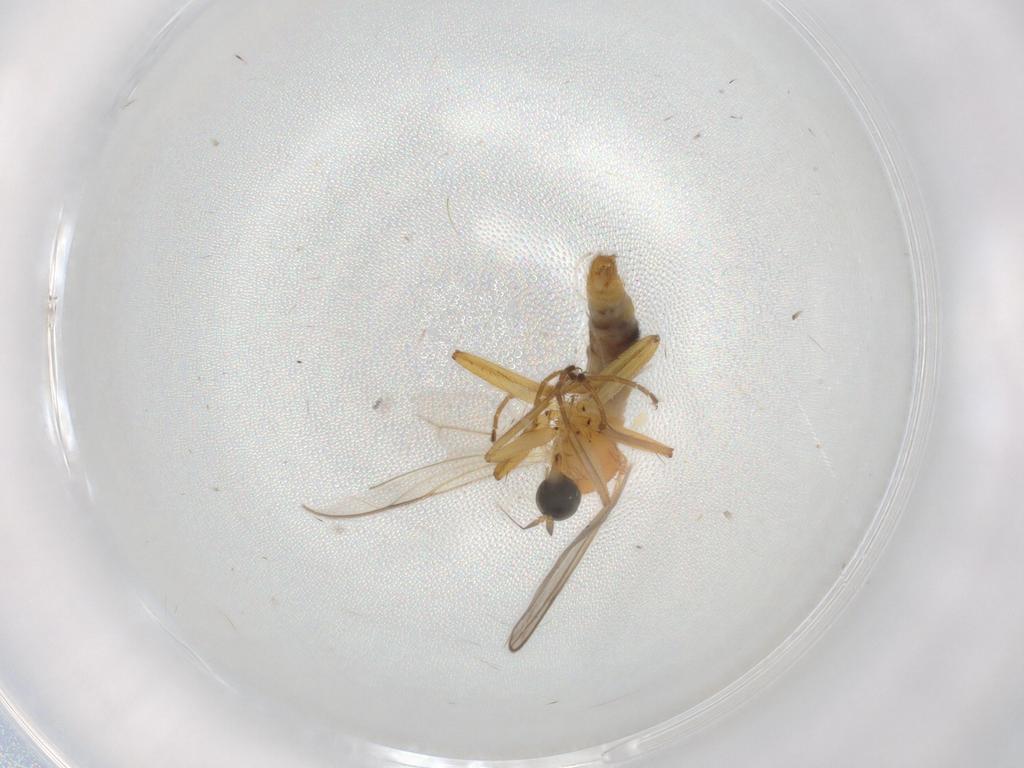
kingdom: Animalia
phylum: Arthropoda
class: Insecta
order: Diptera
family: Hybotidae
